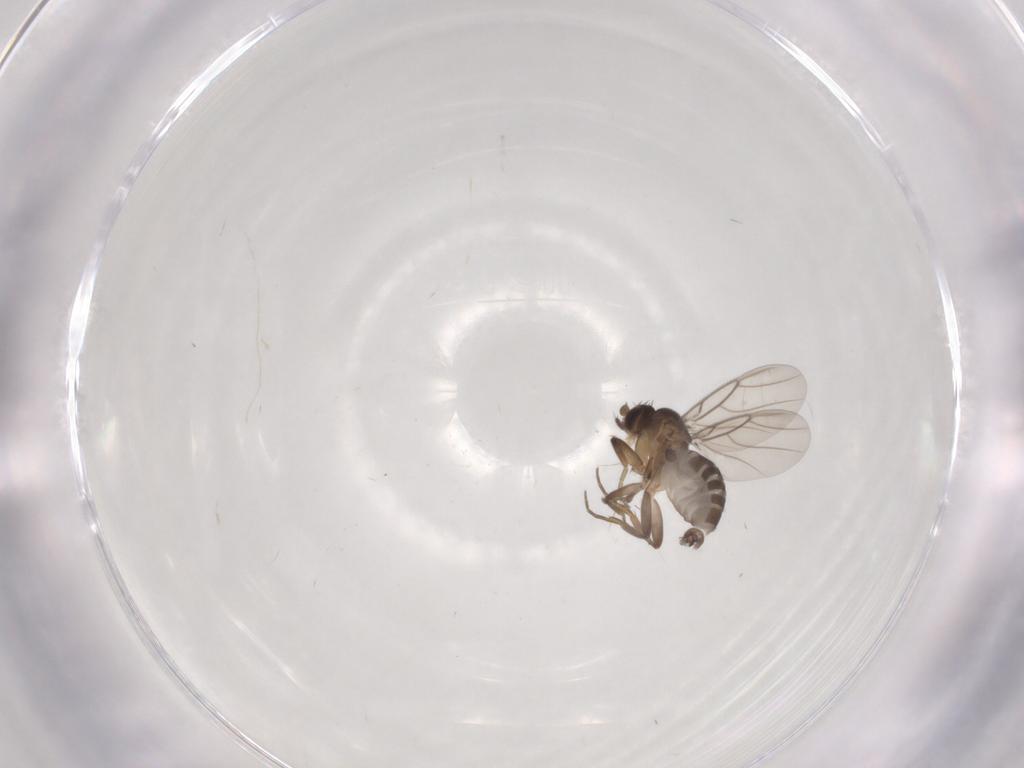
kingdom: Animalia
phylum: Arthropoda
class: Insecta
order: Diptera
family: Phoridae
